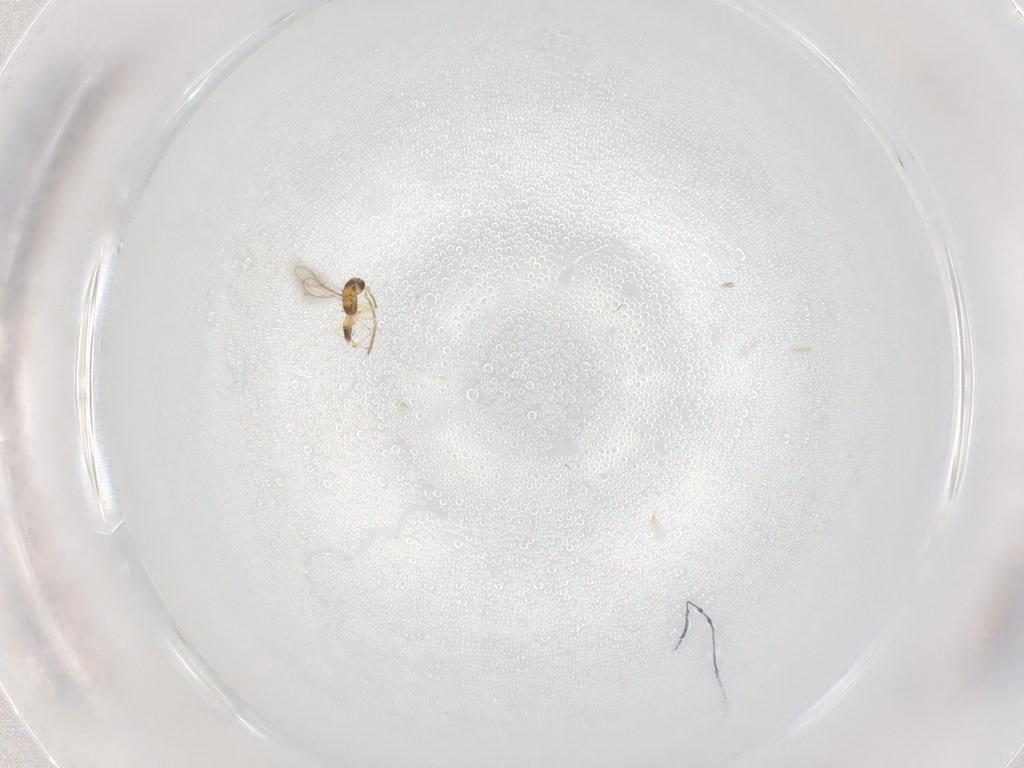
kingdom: Animalia
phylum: Arthropoda
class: Insecta
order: Hymenoptera
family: Mymaridae
